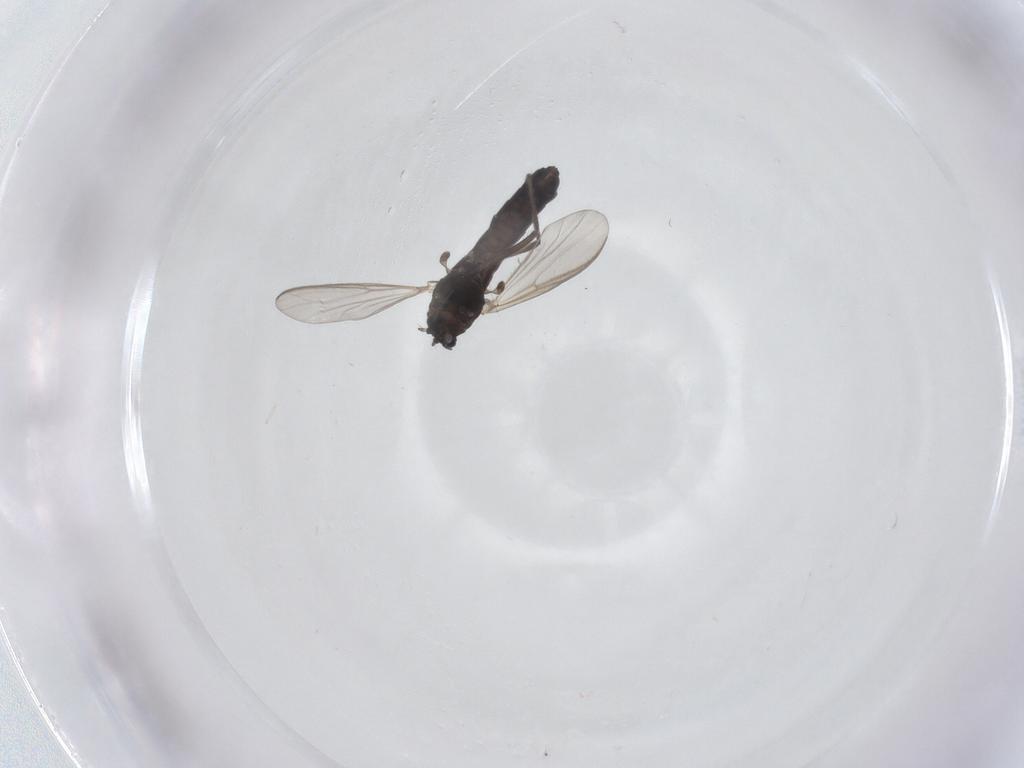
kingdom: Animalia
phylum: Arthropoda
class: Insecta
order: Diptera
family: Chironomidae
